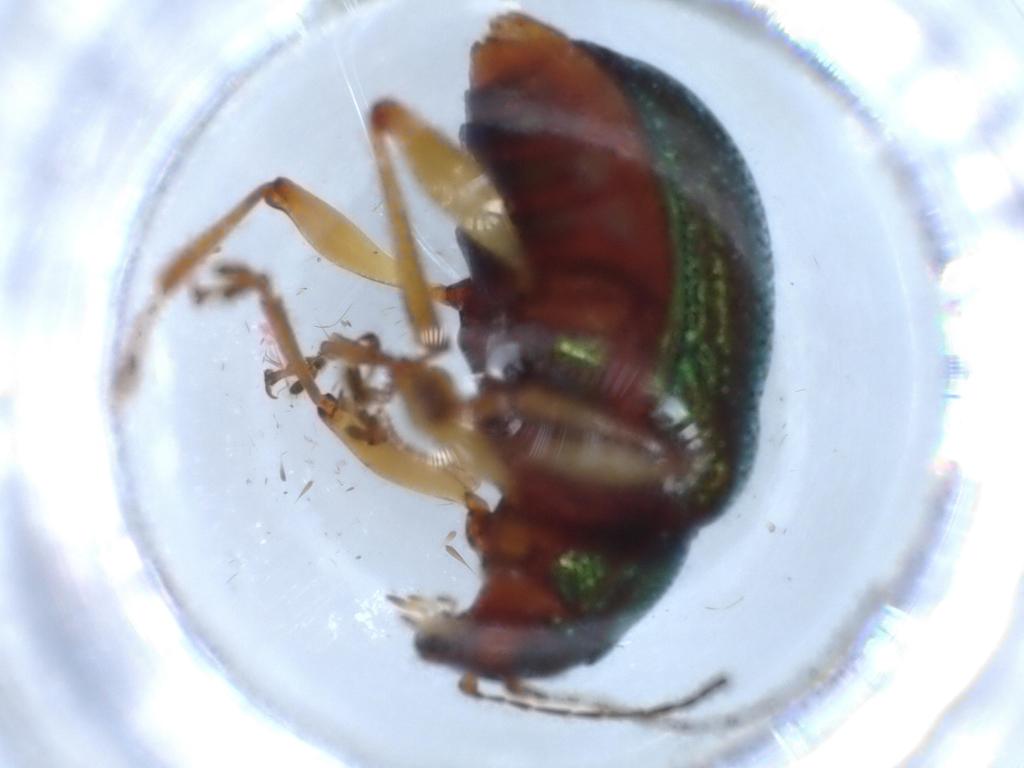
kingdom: Animalia
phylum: Arthropoda
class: Insecta
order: Coleoptera
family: Chrysomelidae
